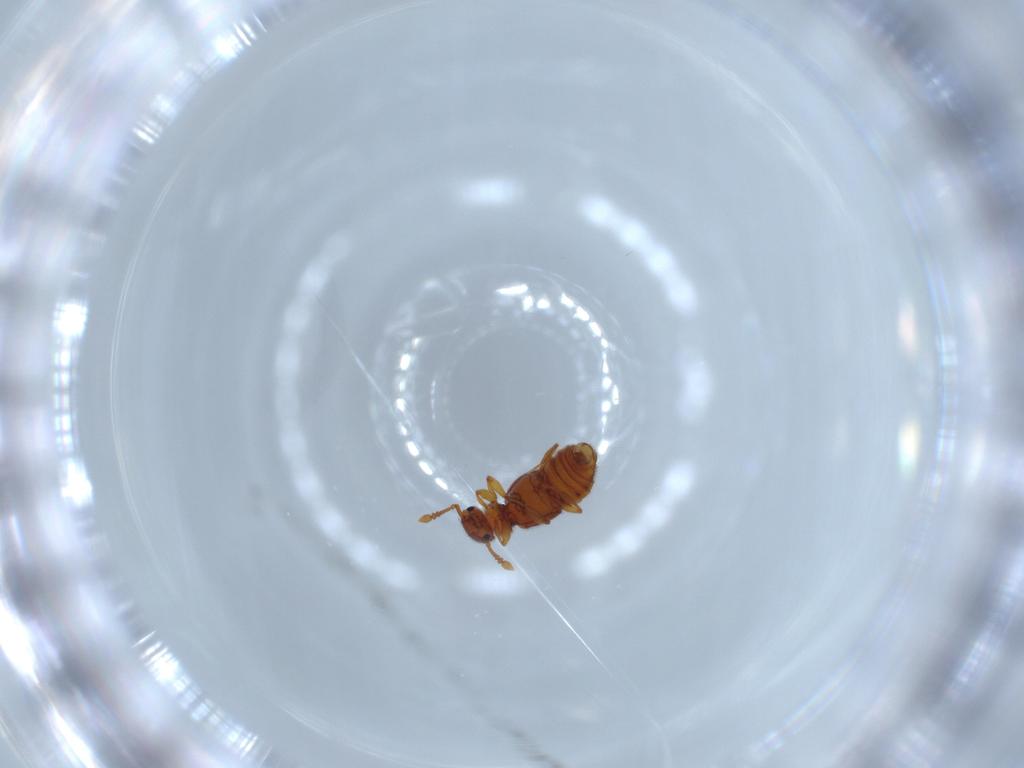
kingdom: Animalia
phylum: Arthropoda
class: Insecta
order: Coleoptera
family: Staphylinidae
